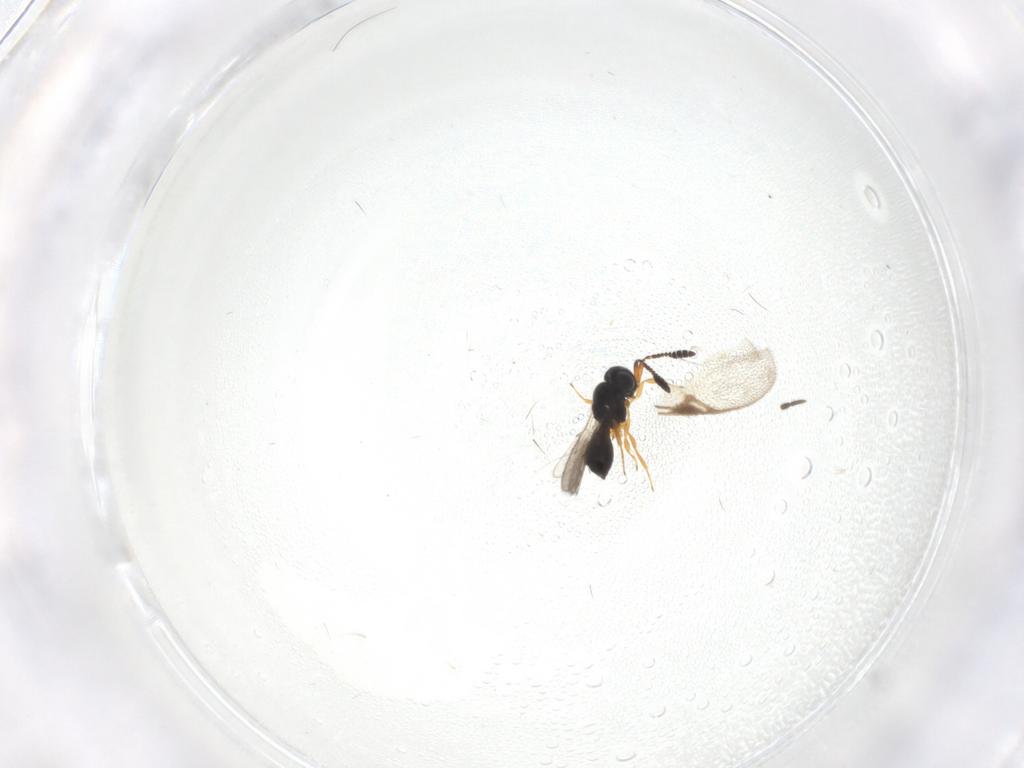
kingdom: Animalia
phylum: Arthropoda
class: Insecta
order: Hymenoptera
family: Scelionidae
